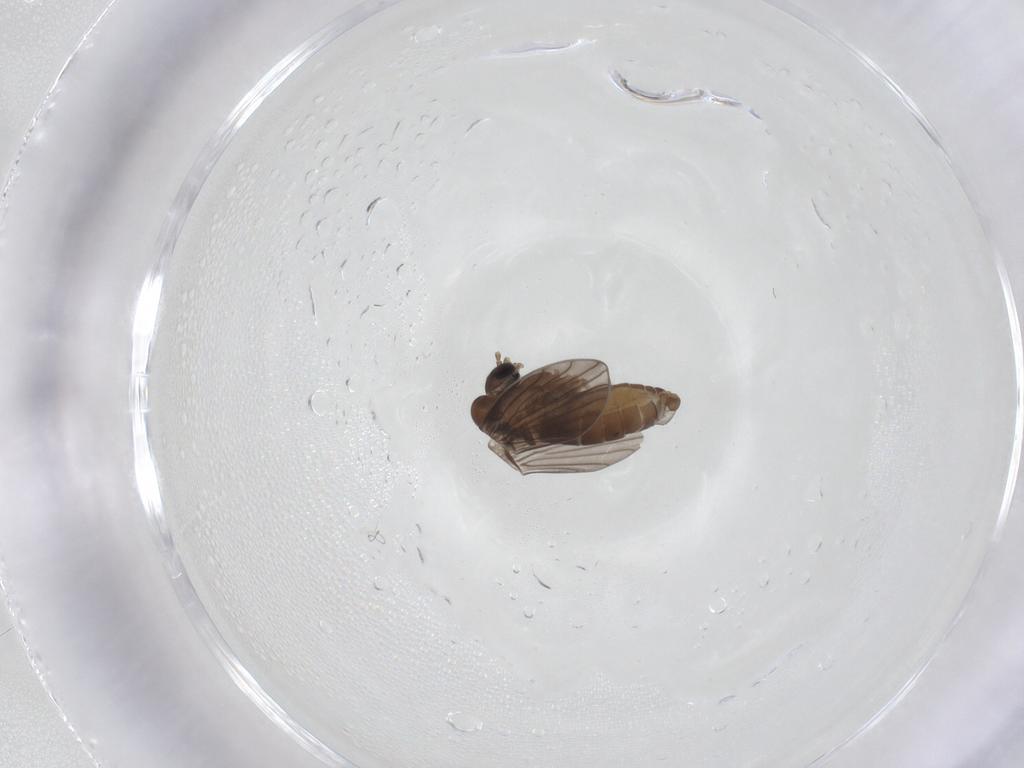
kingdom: Animalia
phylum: Arthropoda
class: Insecta
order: Diptera
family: Psychodidae
